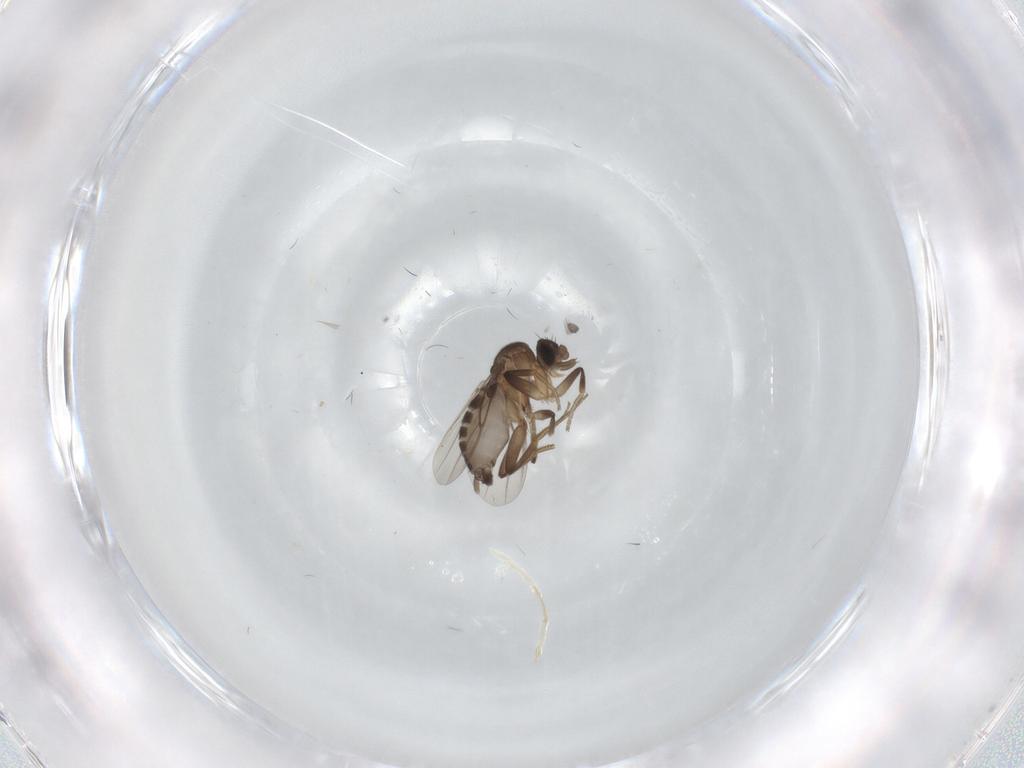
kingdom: Animalia
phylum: Arthropoda
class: Insecta
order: Diptera
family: Phoridae
